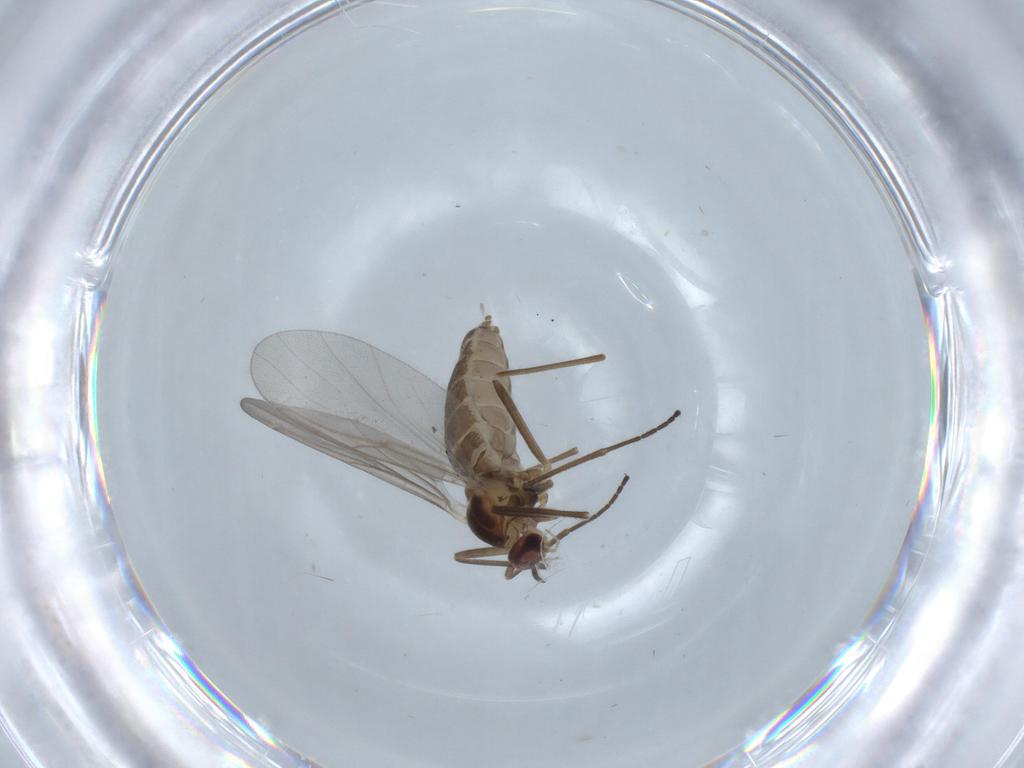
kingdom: Animalia
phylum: Arthropoda
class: Insecta
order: Diptera
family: Cecidomyiidae
